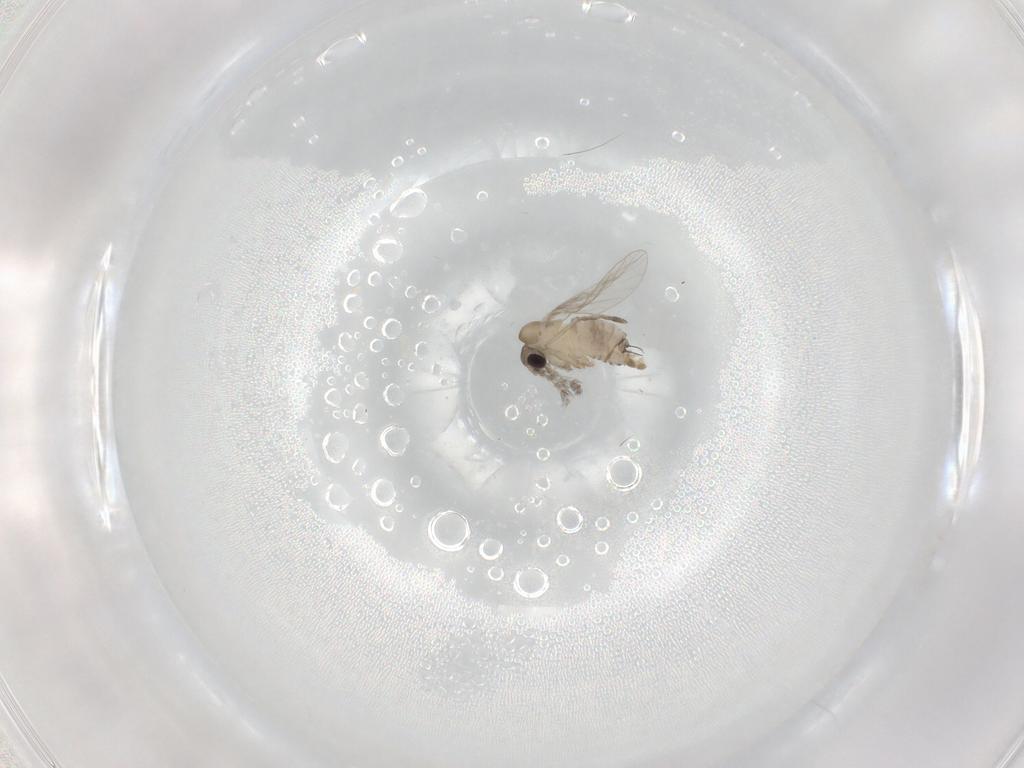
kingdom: Animalia
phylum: Arthropoda
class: Insecta
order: Diptera
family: Psychodidae
